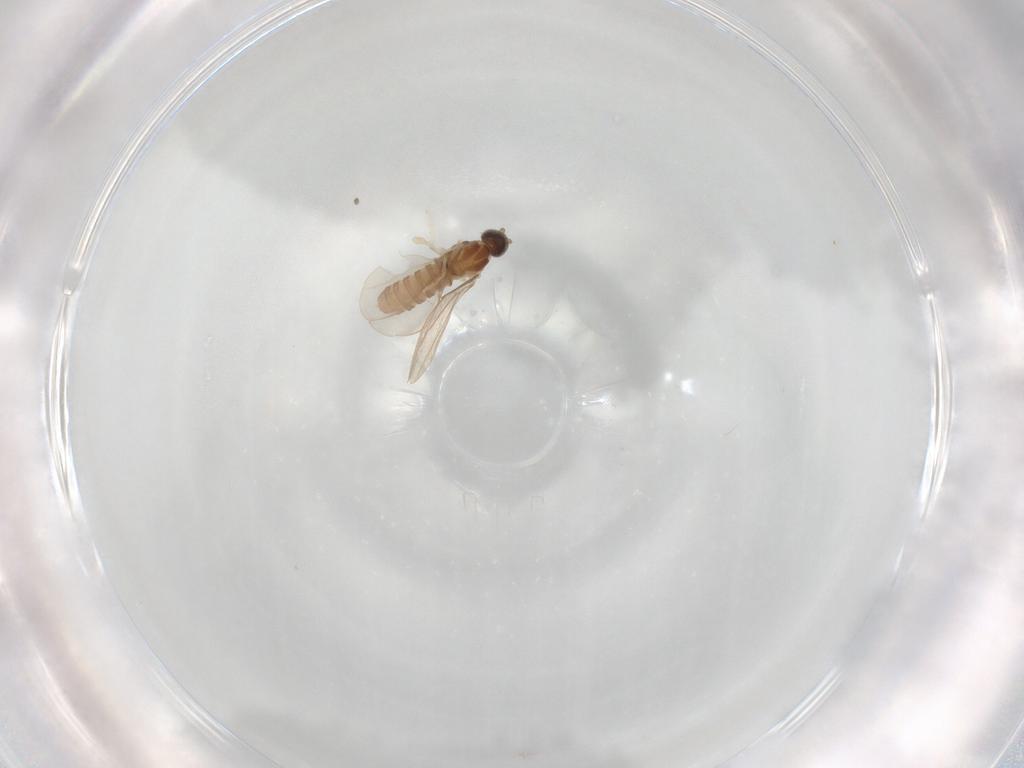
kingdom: Animalia
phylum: Arthropoda
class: Insecta
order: Diptera
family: Cecidomyiidae
